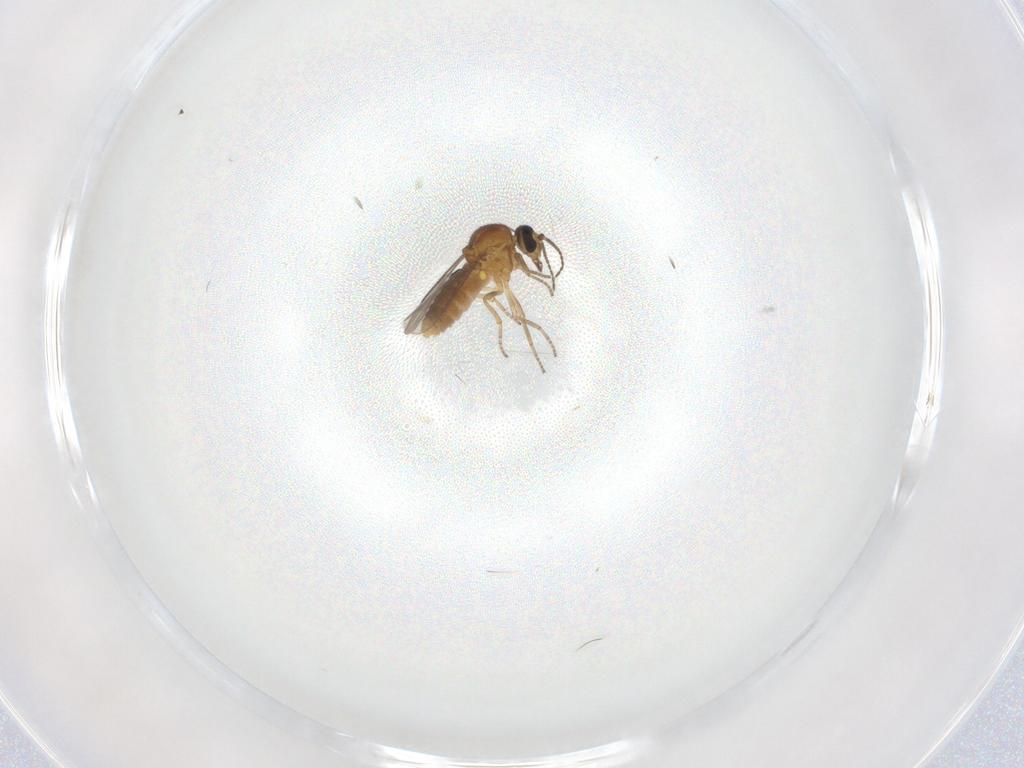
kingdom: Animalia
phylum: Arthropoda
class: Insecta
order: Diptera
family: Ceratopogonidae
